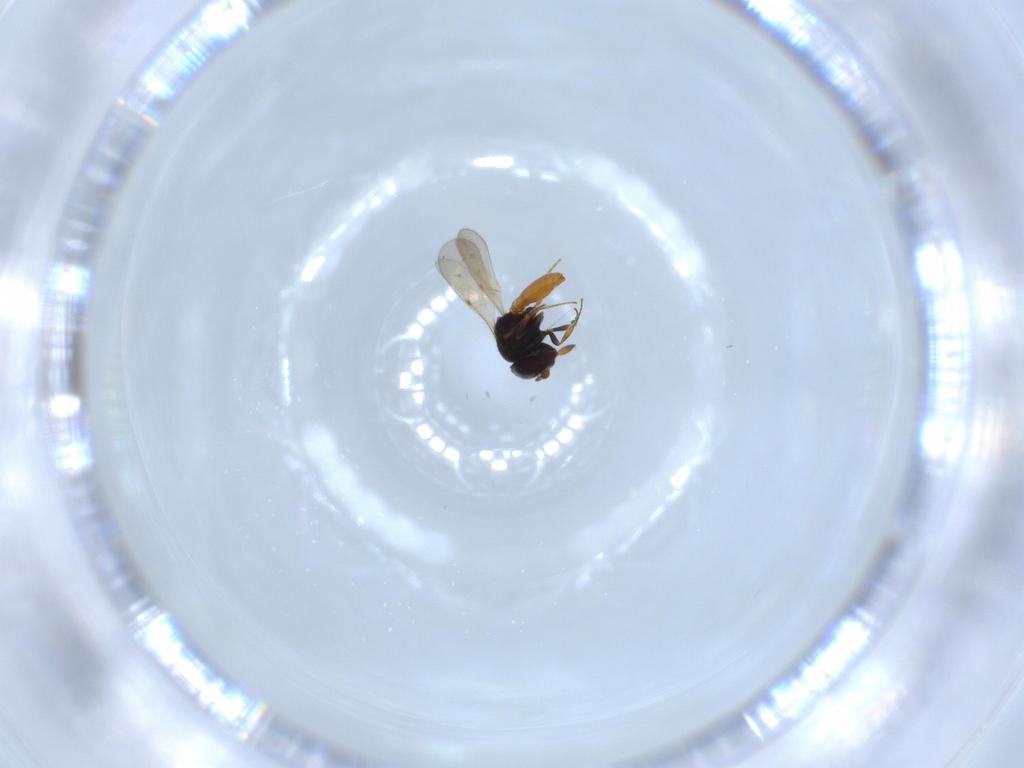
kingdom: Animalia
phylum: Arthropoda
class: Insecta
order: Hymenoptera
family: Scelionidae
